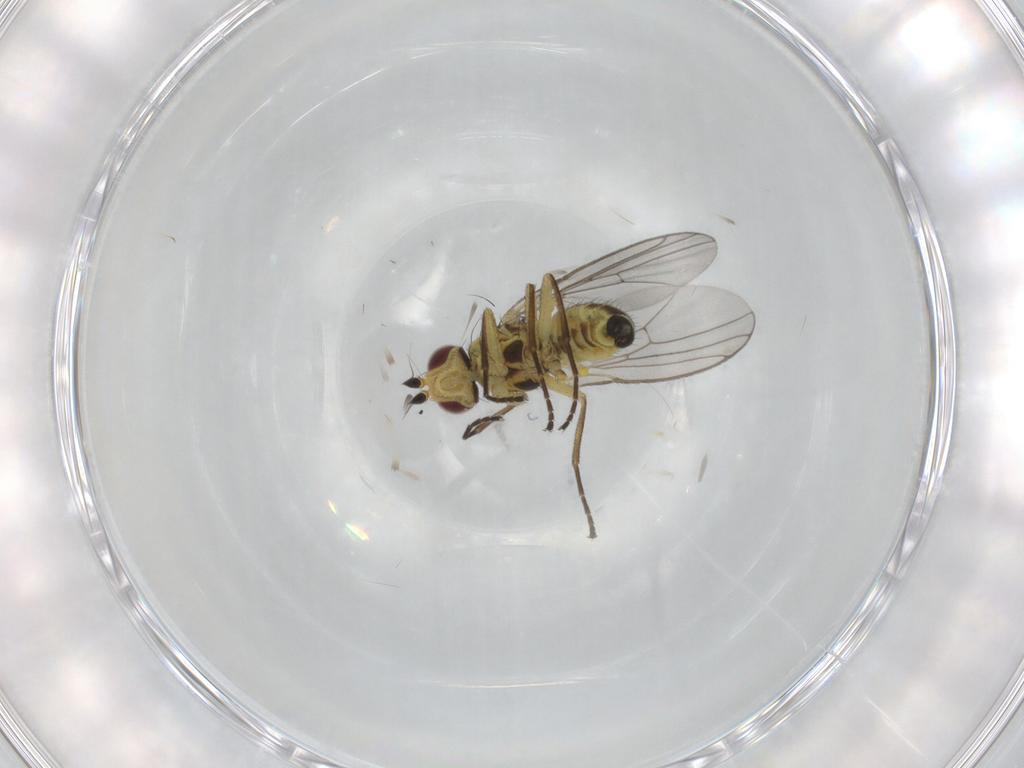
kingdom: Animalia
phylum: Arthropoda
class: Insecta
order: Diptera
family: Agromyzidae
